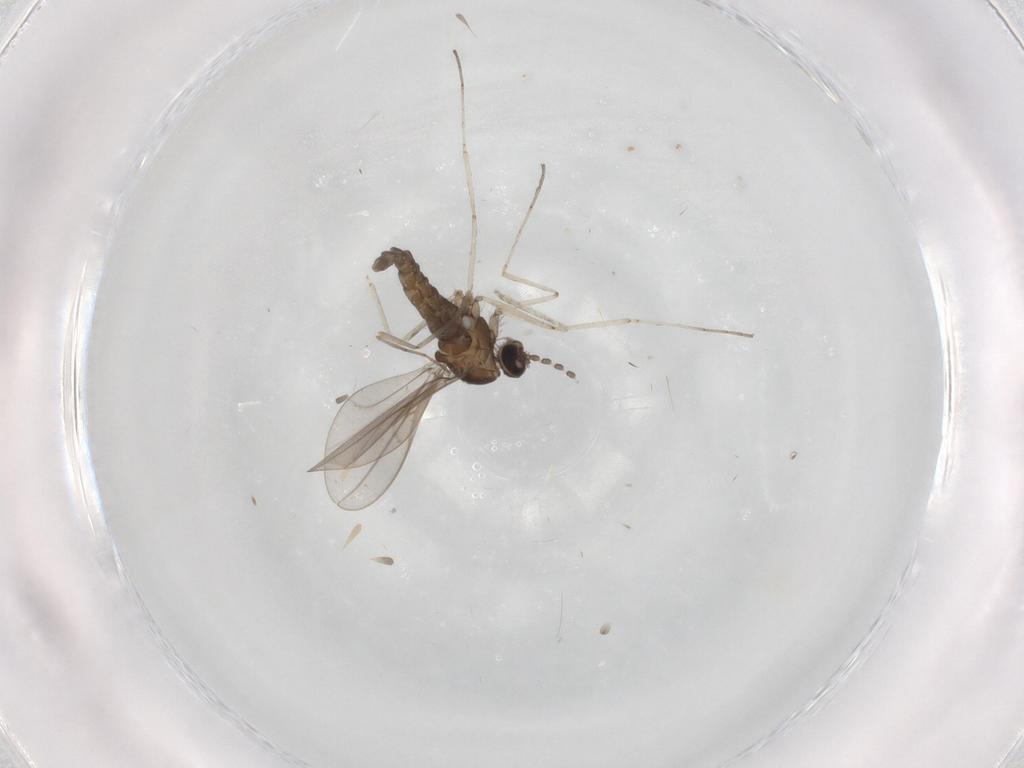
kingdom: Animalia
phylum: Arthropoda
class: Insecta
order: Diptera
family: Cecidomyiidae
